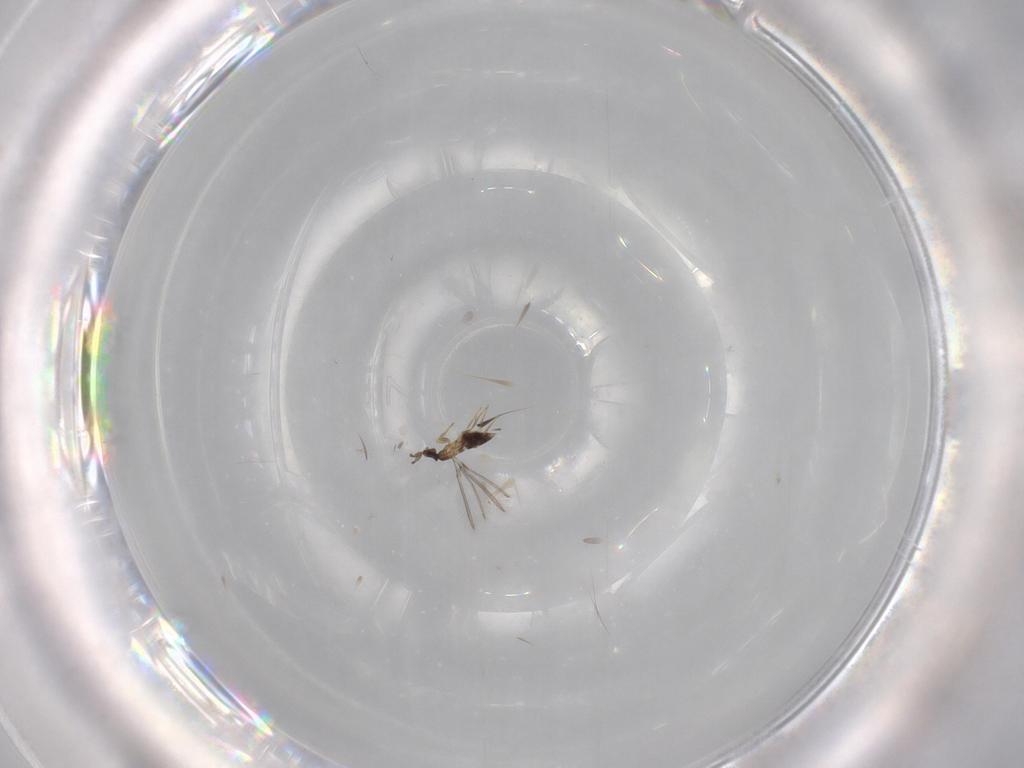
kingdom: Animalia
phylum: Arthropoda
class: Insecta
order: Hymenoptera
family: Mymaridae
